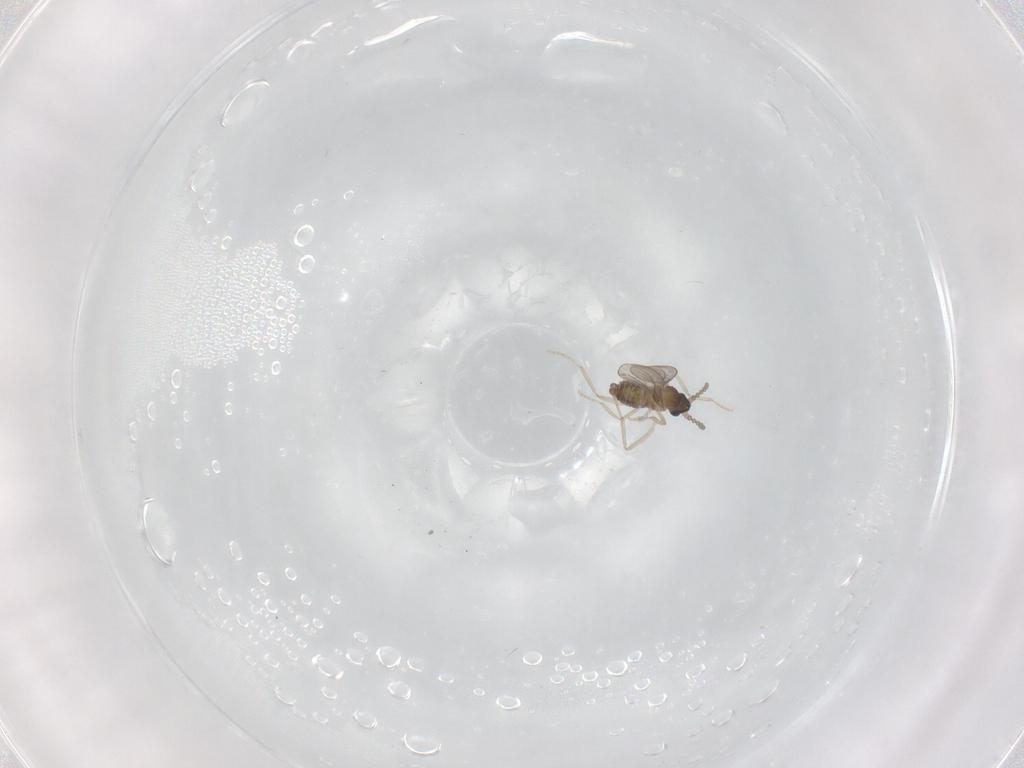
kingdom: Animalia
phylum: Arthropoda
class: Insecta
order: Diptera
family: Cecidomyiidae
